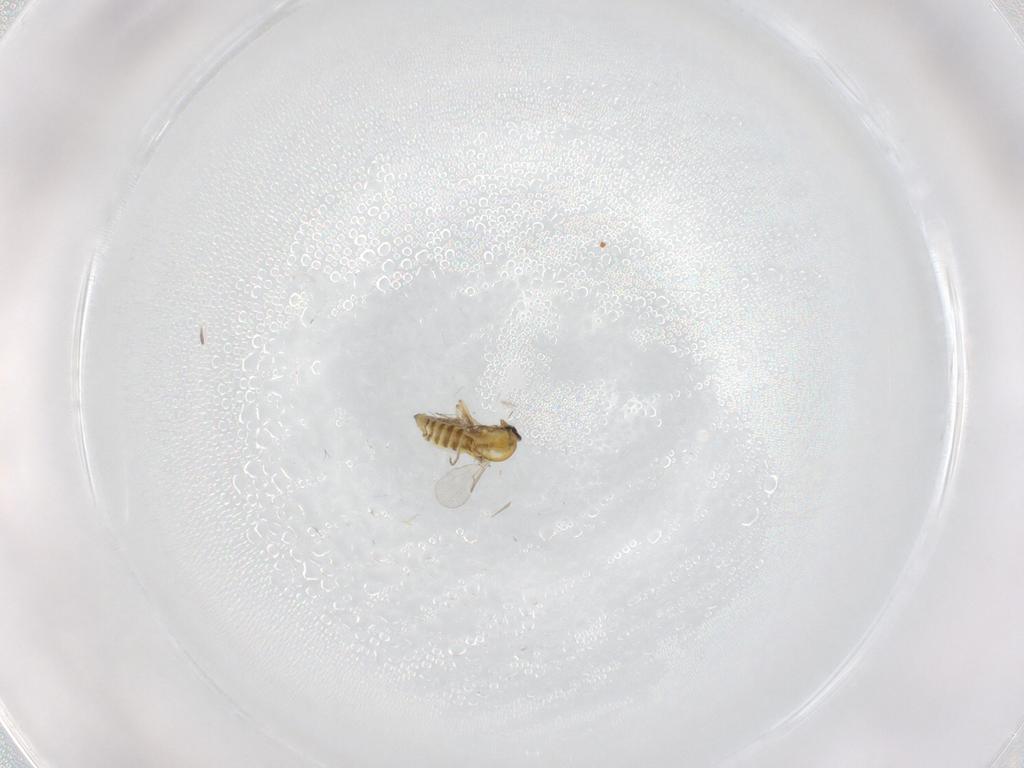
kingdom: Animalia
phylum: Arthropoda
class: Insecta
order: Diptera
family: Ceratopogonidae
